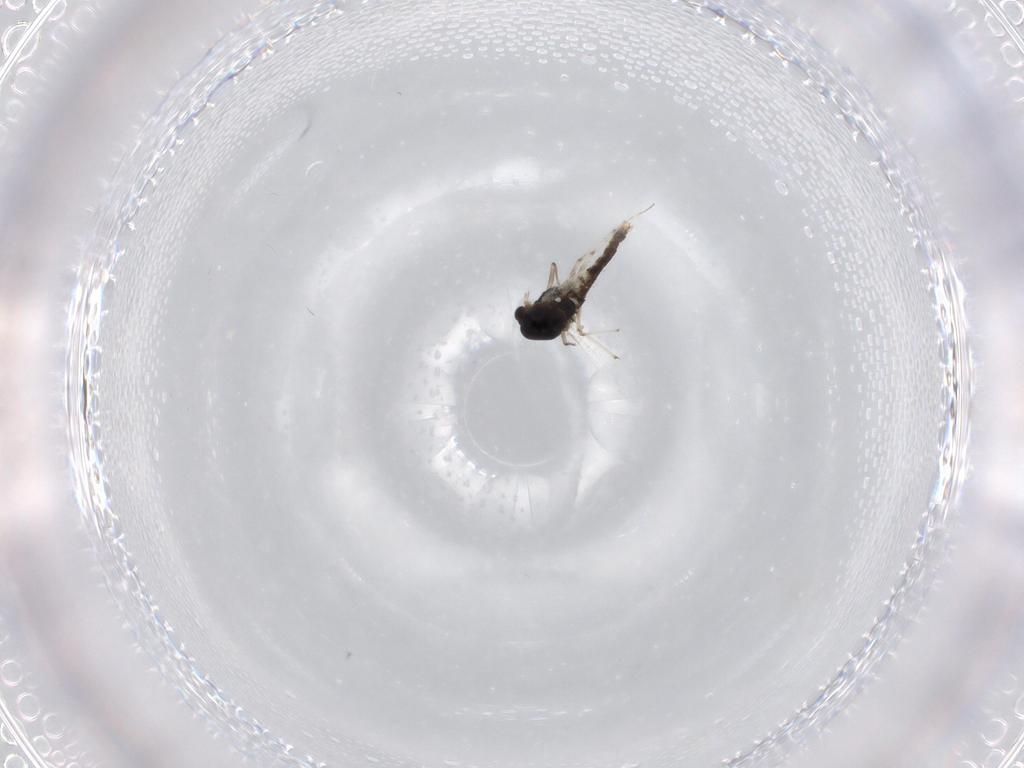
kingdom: Animalia
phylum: Arthropoda
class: Insecta
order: Diptera
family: Chironomidae
